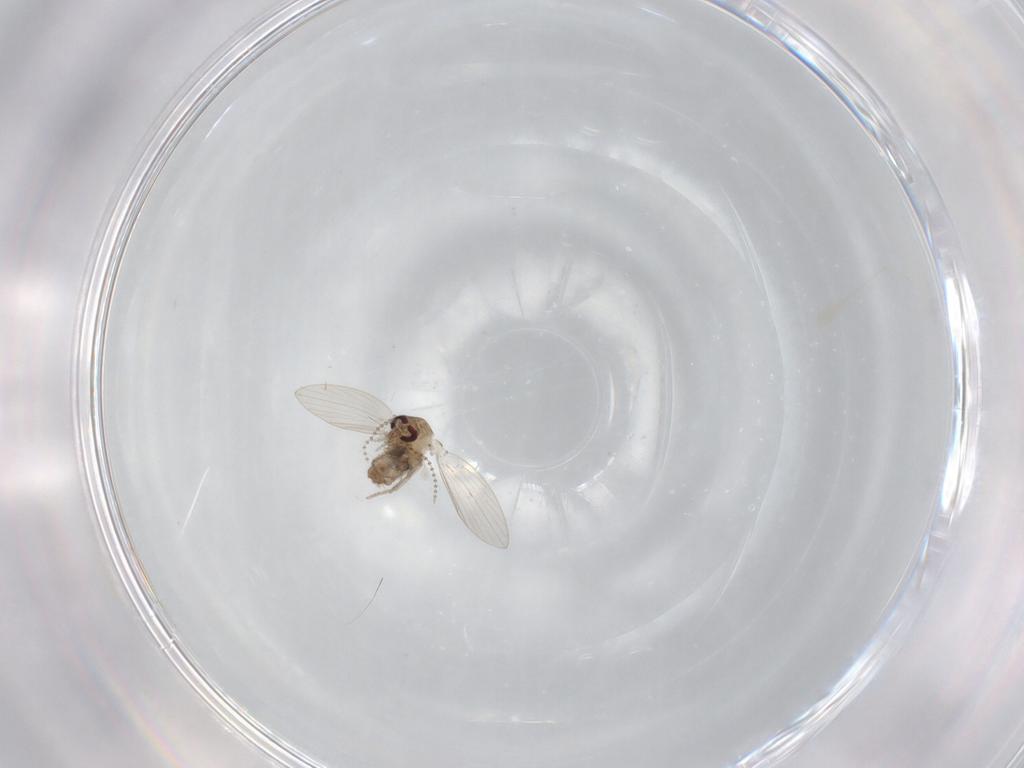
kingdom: Animalia
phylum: Arthropoda
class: Insecta
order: Diptera
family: Psychodidae
